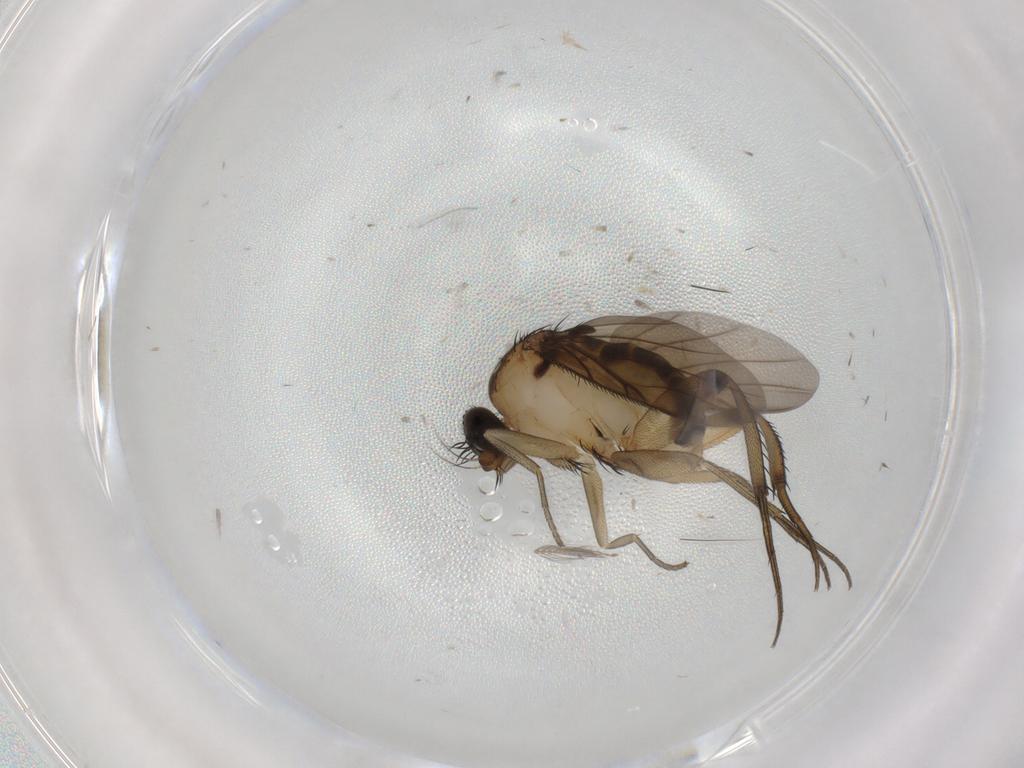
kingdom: Animalia
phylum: Arthropoda
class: Insecta
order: Diptera
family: Phoridae
